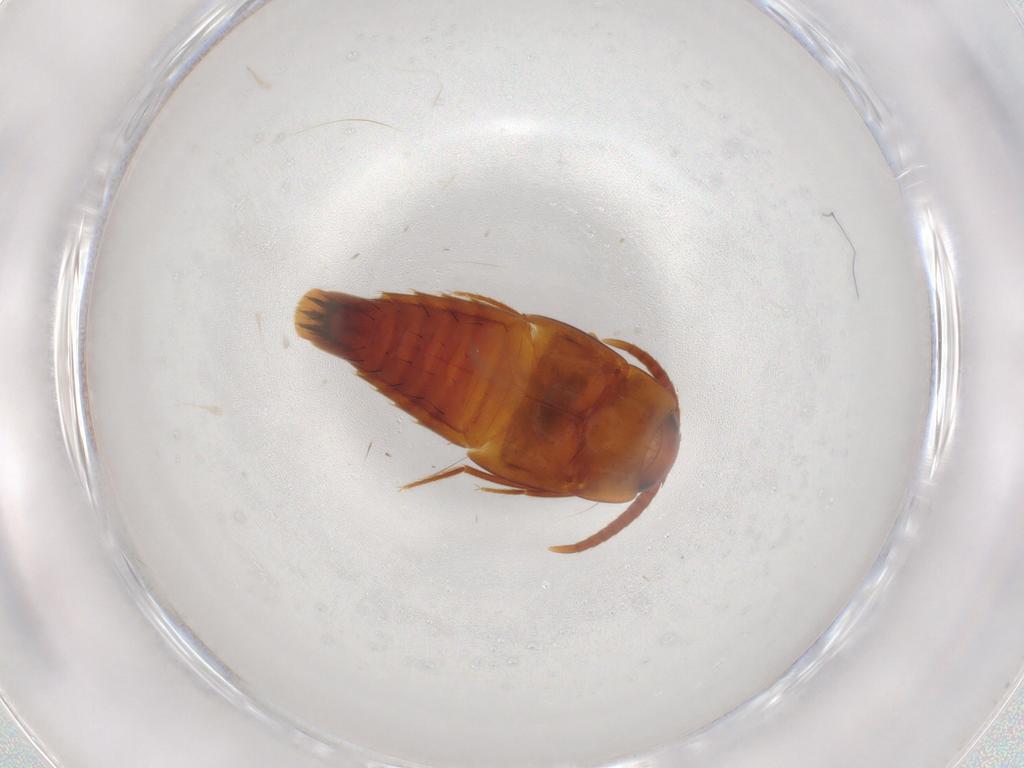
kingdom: Animalia
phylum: Arthropoda
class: Insecta
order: Coleoptera
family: Staphylinidae
